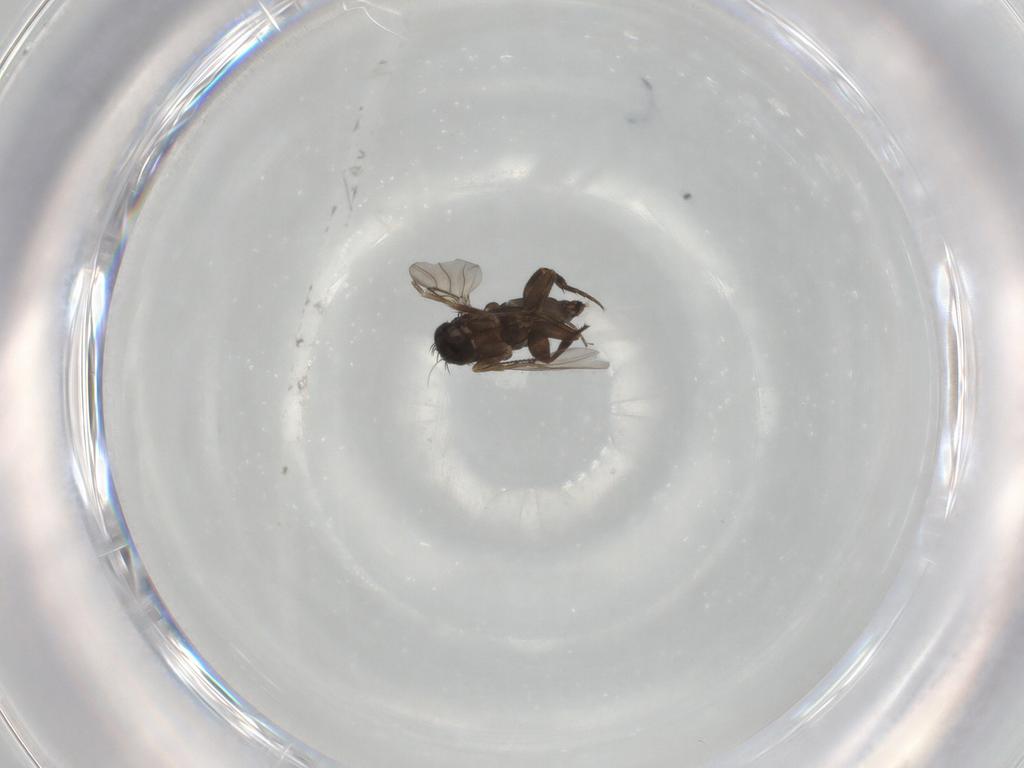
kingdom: Animalia
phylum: Arthropoda
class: Insecta
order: Diptera
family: Phoridae
